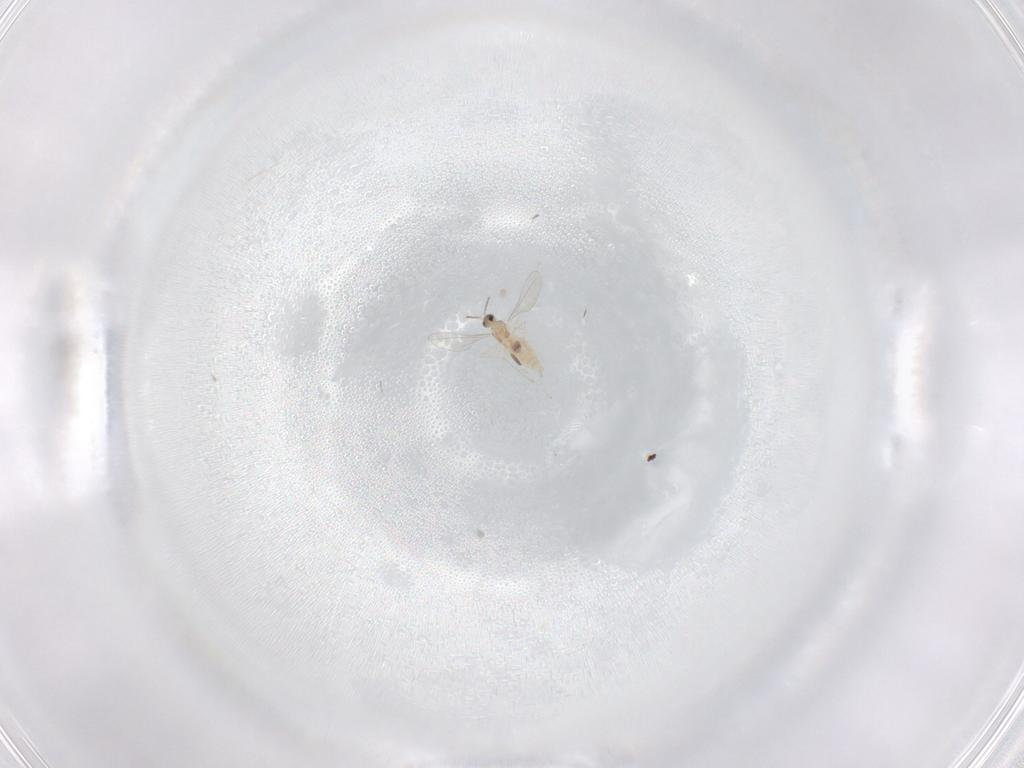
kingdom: Animalia
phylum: Arthropoda
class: Insecta
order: Diptera
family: Cecidomyiidae
